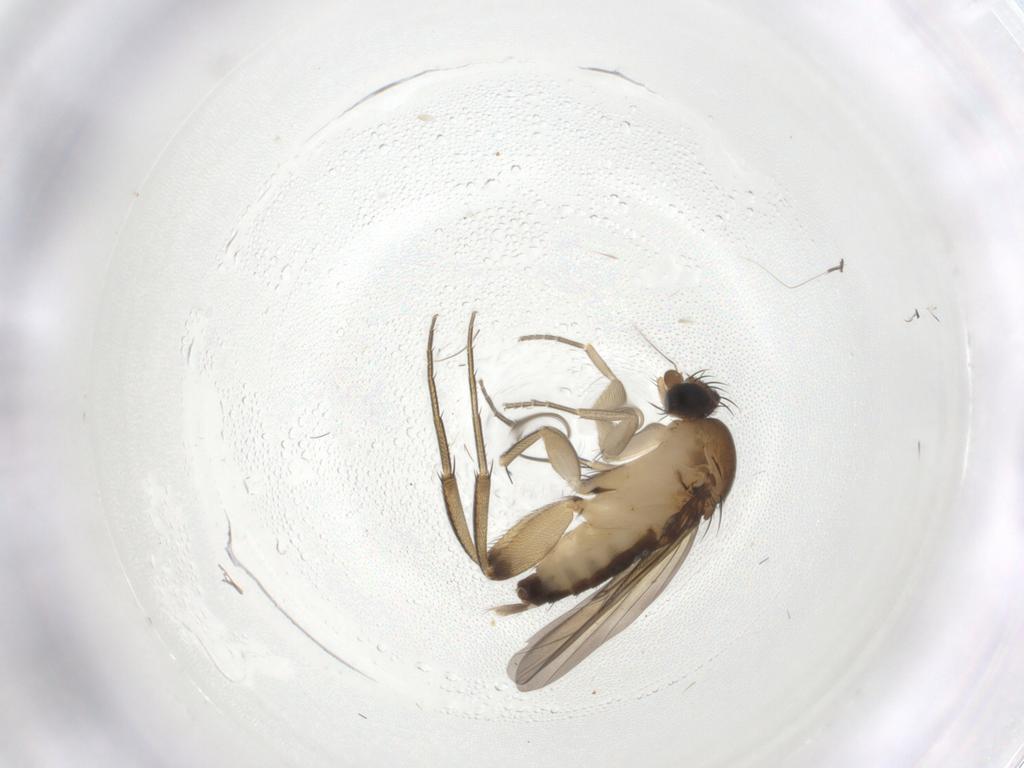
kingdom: Animalia
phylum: Arthropoda
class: Insecta
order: Diptera
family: Phoridae
